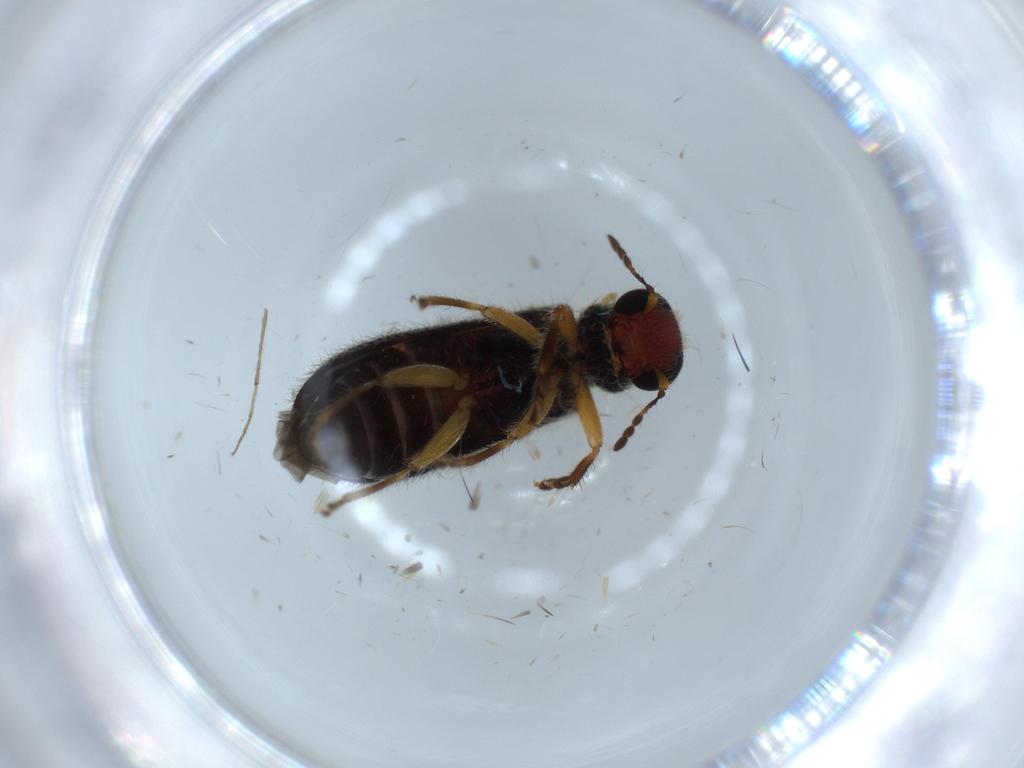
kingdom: Animalia
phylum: Arthropoda
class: Insecta
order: Coleoptera
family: Cleridae
